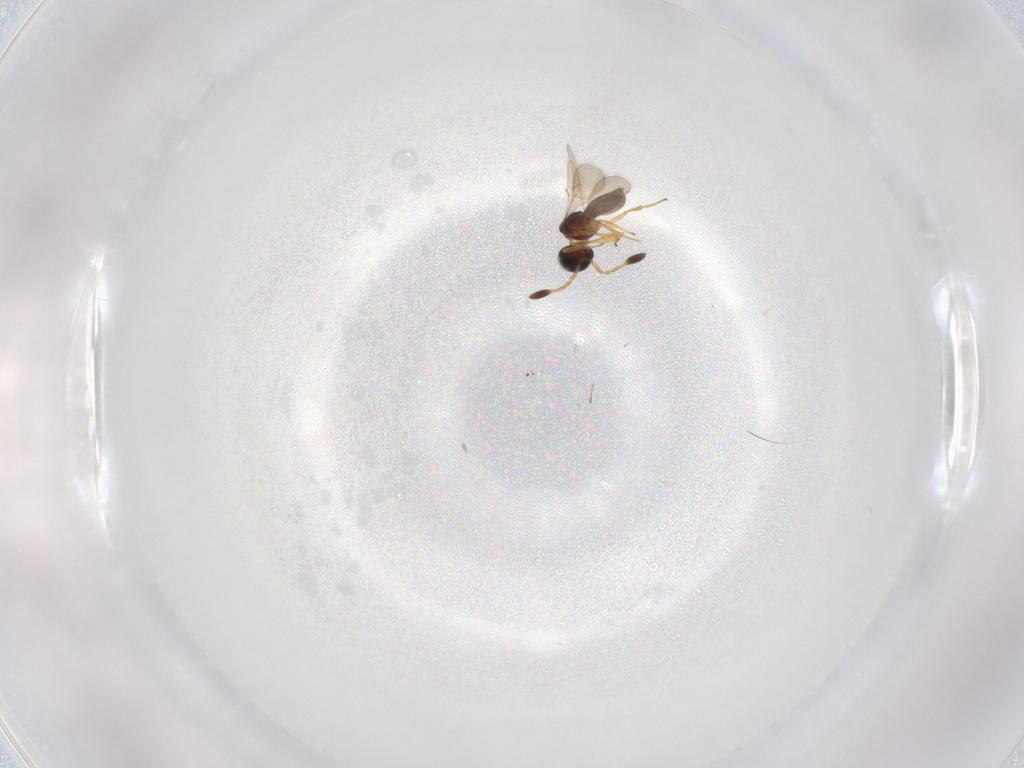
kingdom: Animalia
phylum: Arthropoda
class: Insecta
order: Hymenoptera
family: Scelionidae
